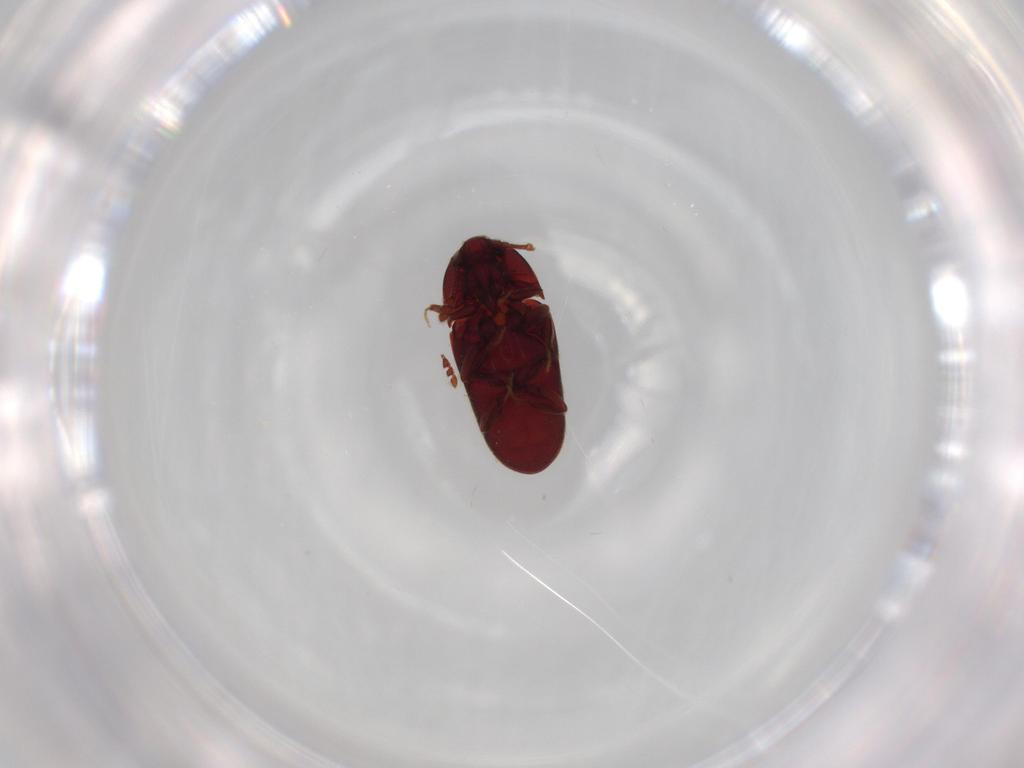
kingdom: Animalia
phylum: Arthropoda
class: Insecta
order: Coleoptera
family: Throscidae
